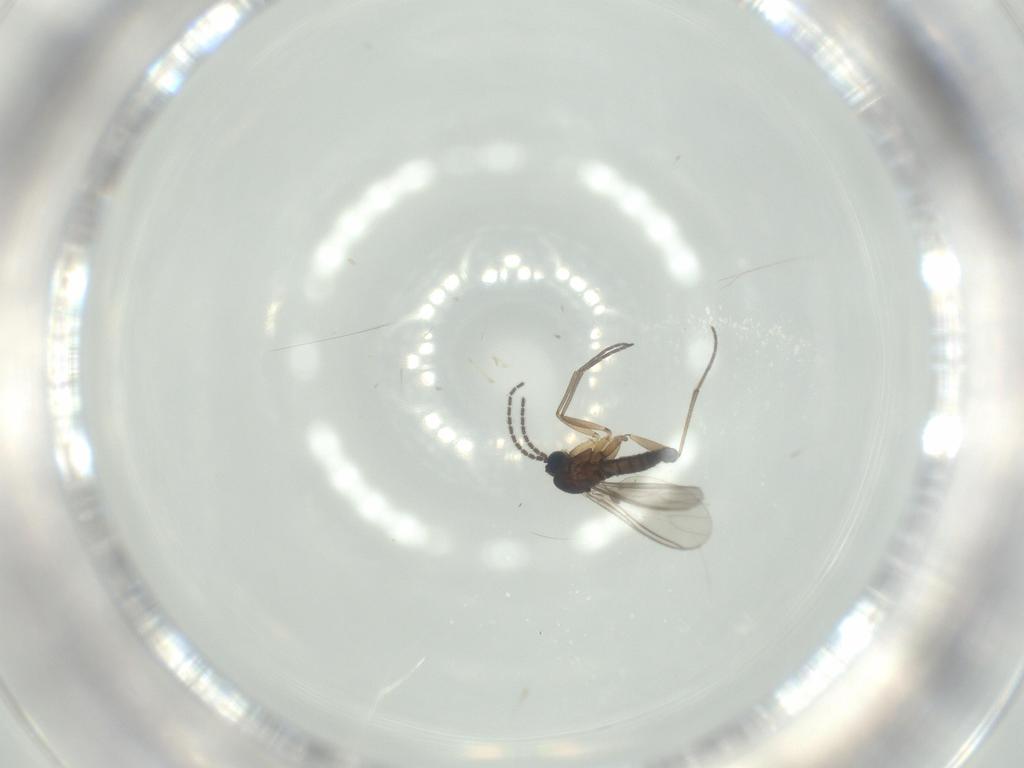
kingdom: Animalia
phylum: Arthropoda
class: Insecta
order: Diptera
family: Sciaridae
